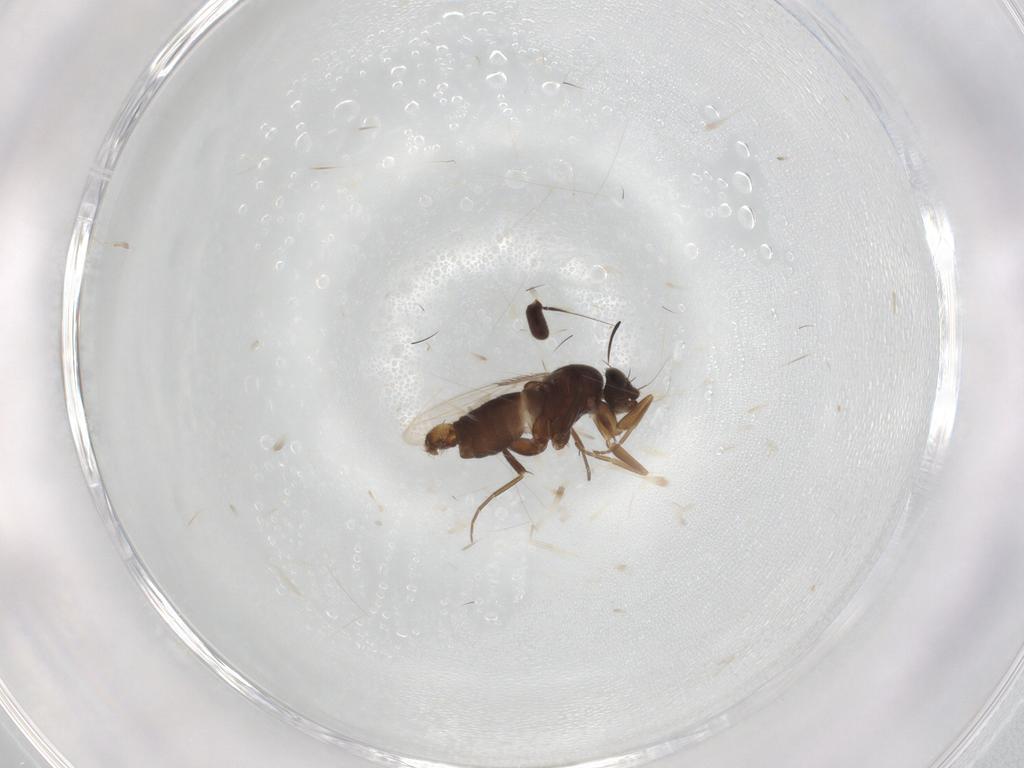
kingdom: Animalia
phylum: Arthropoda
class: Insecta
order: Diptera
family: Phoridae
